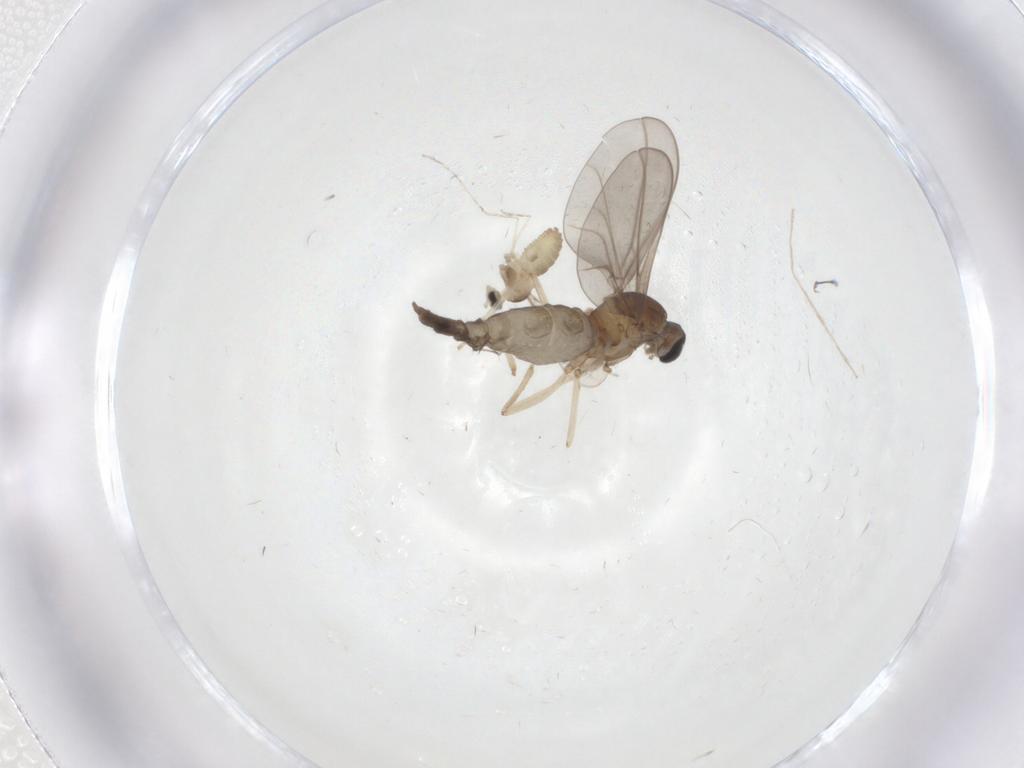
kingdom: Animalia
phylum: Arthropoda
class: Insecta
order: Diptera
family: Cecidomyiidae
